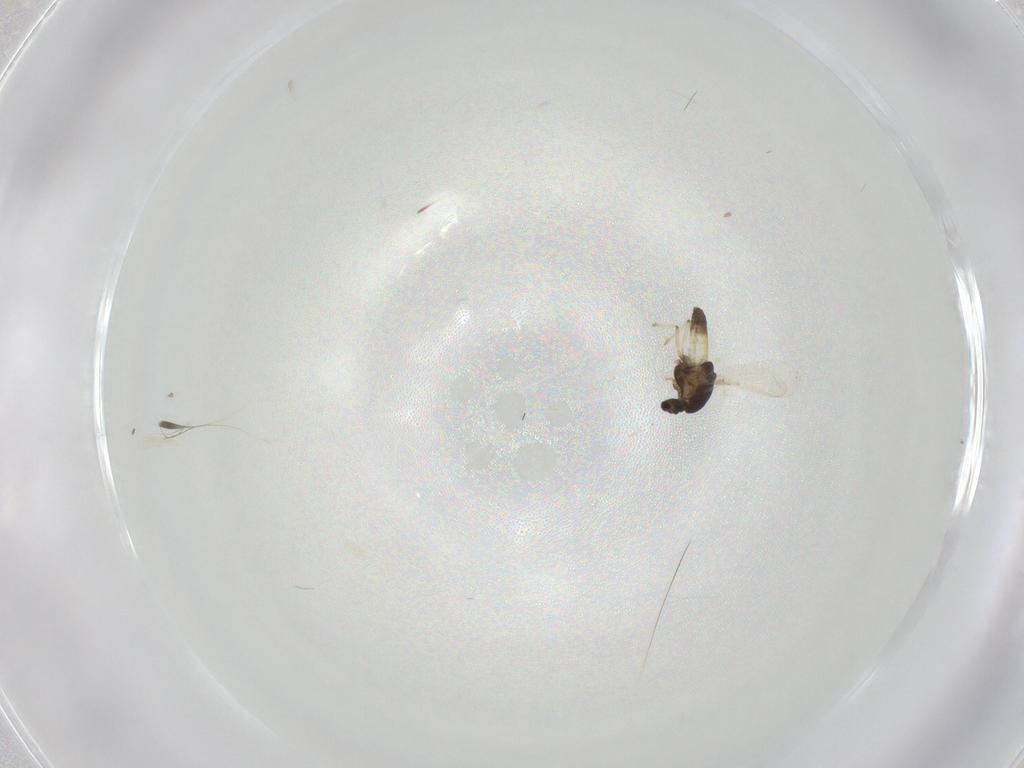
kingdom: Animalia
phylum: Arthropoda
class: Insecta
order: Diptera
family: Chironomidae
